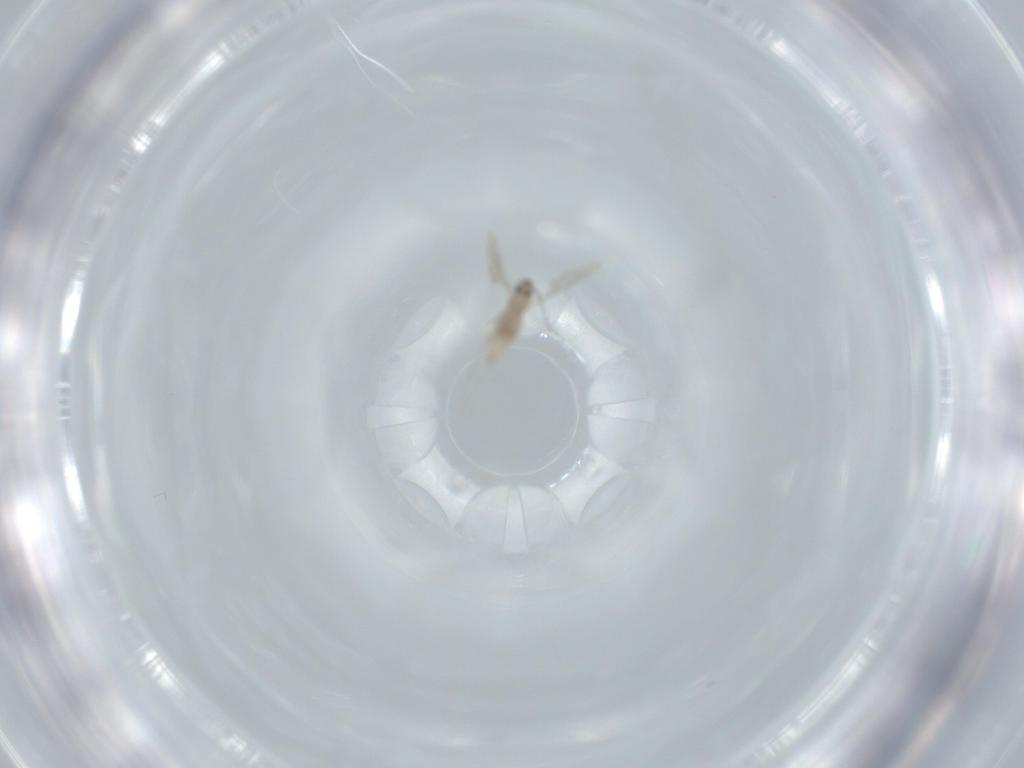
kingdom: Animalia
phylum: Arthropoda
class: Insecta
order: Diptera
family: Cecidomyiidae
